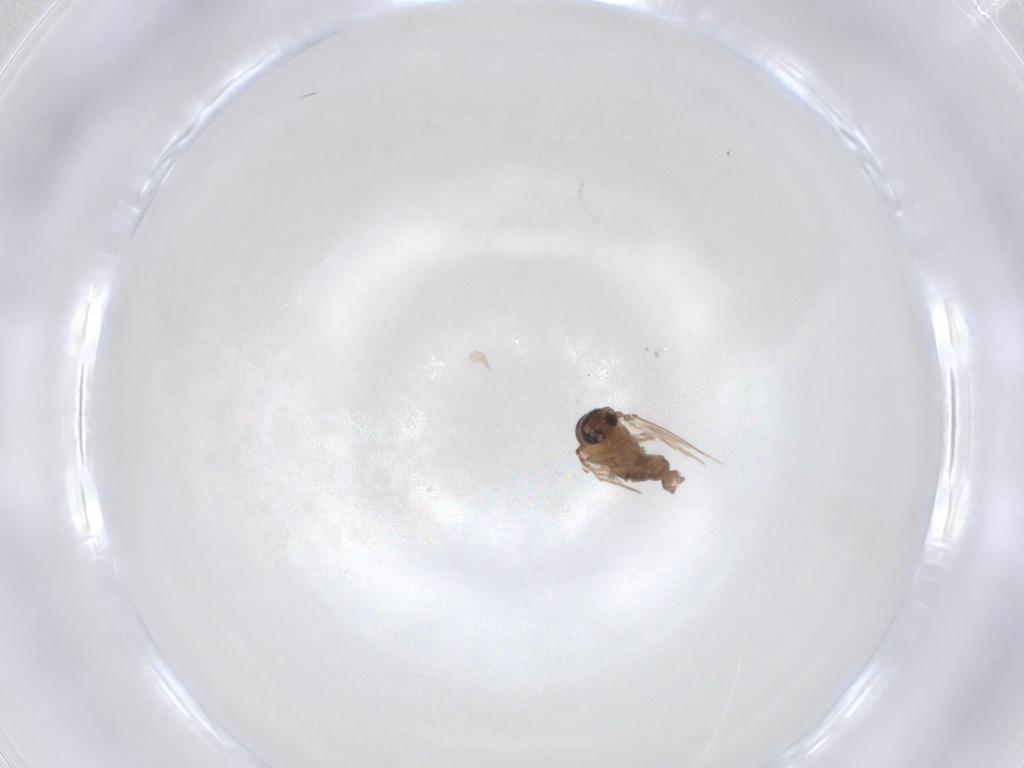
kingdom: Animalia
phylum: Arthropoda
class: Insecta
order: Diptera
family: Psychodidae
